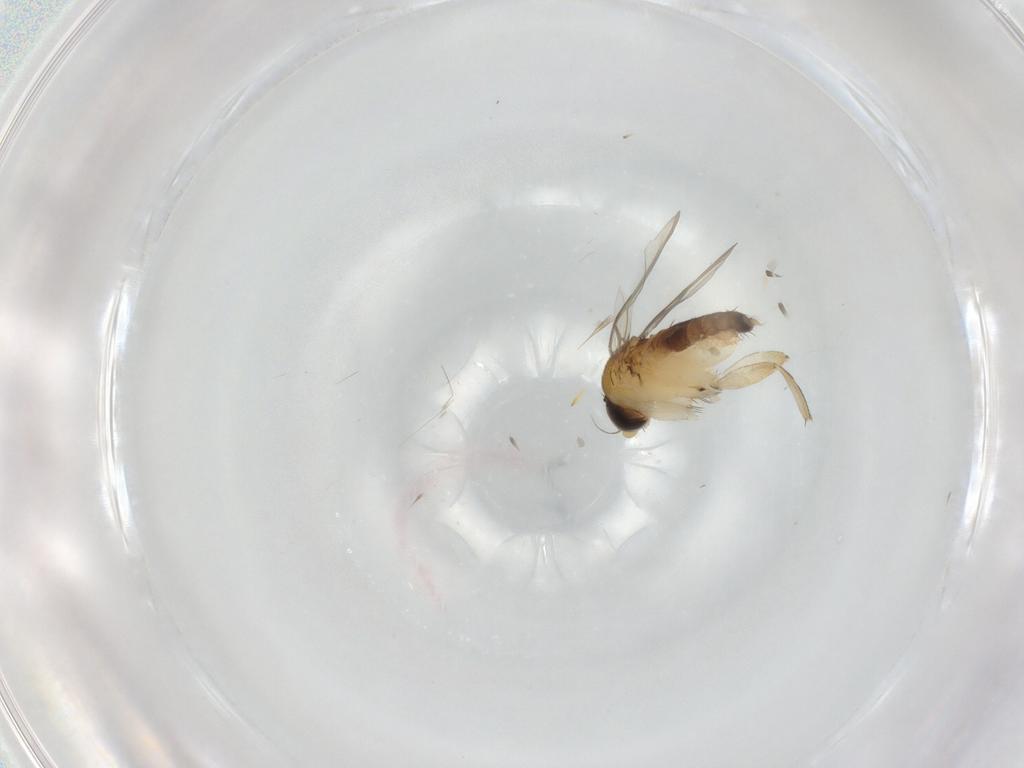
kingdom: Animalia
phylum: Arthropoda
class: Insecta
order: Diptera
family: Phoridae
